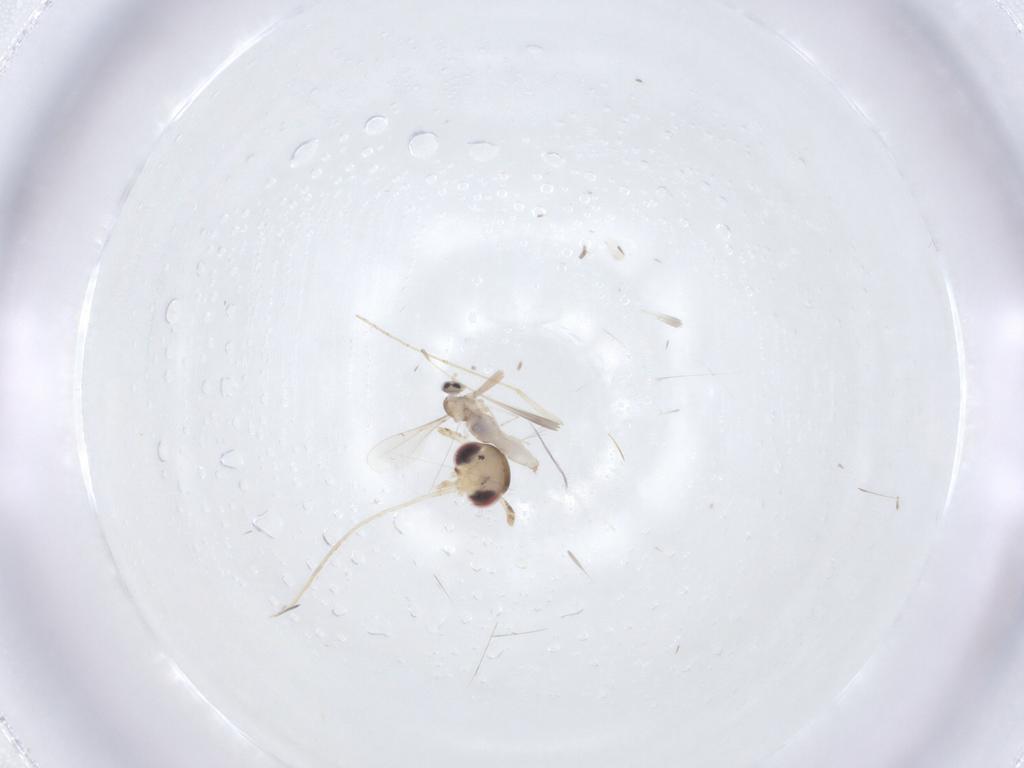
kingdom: Animalia
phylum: Arthropoda
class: Insecta
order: Lepidoptera
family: Cosmopterigidae
